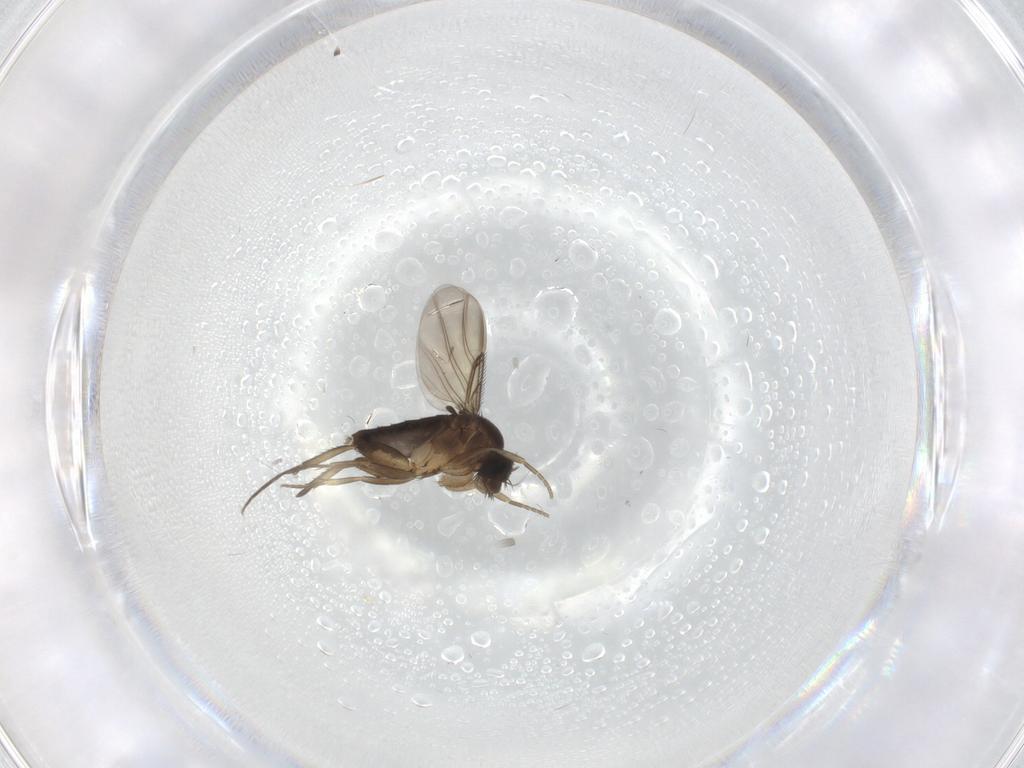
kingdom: Animalia
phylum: Arthropoda
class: Insecta
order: Diptera
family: Phoridae
